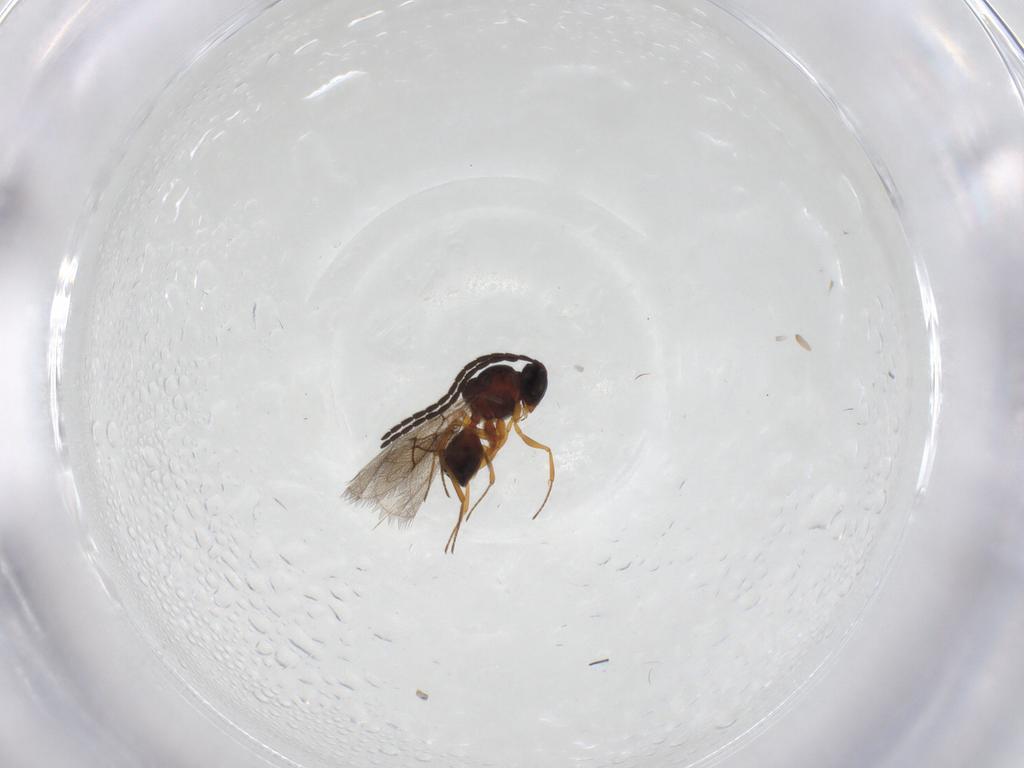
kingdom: Animalia
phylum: Arthropoda
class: Insecta
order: Hymenoptera
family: Figitidae
